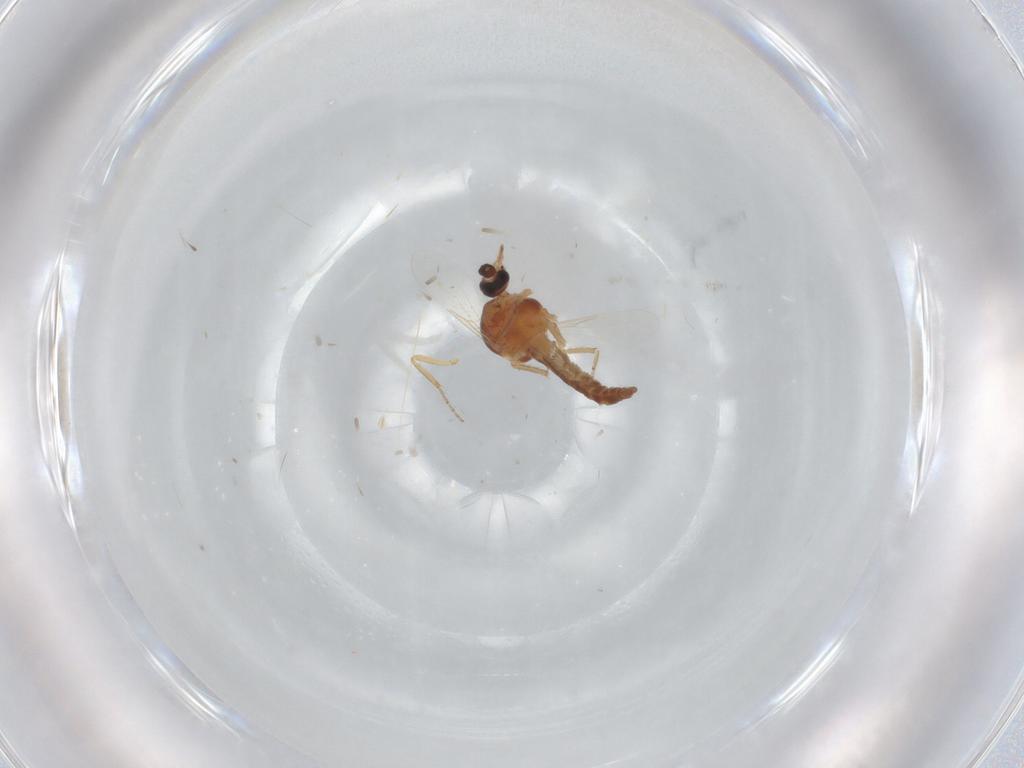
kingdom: Animalia
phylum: Arthropoda
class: Insecta
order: Diptera
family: Ceratopogonidae
